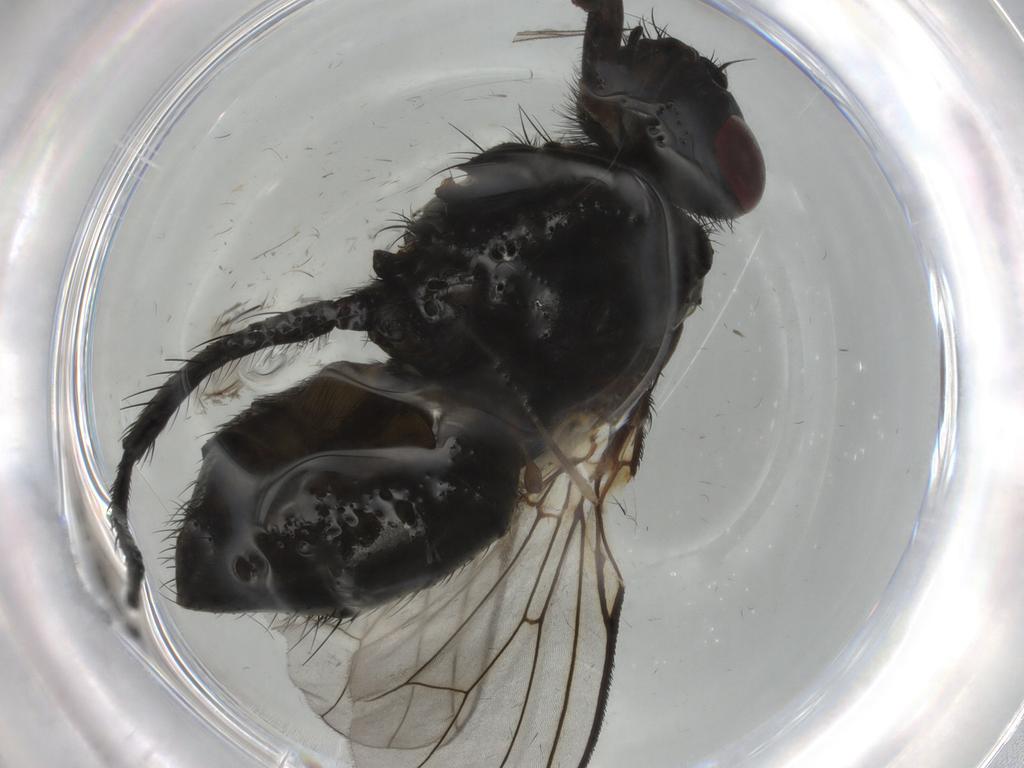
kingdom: Animalia
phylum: Arthropoda
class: Insecta
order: Diptera
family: Muscidae
